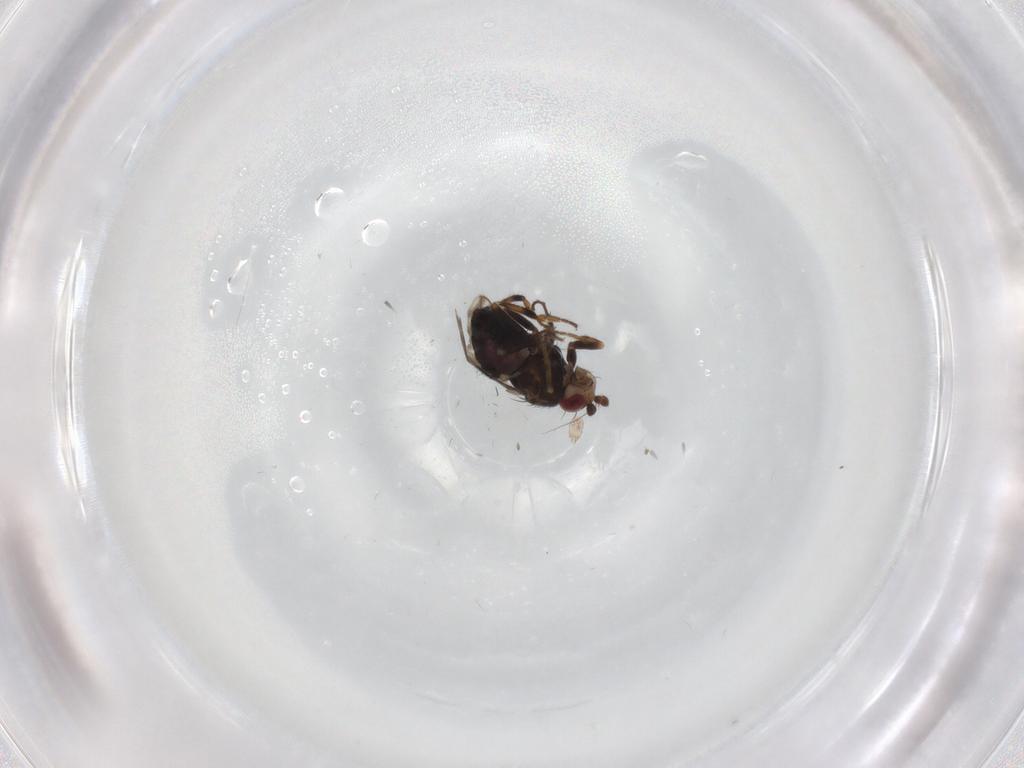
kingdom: Animalia
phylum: Arthropoda
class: Insecta
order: Diptera
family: Sphaeroceridae
